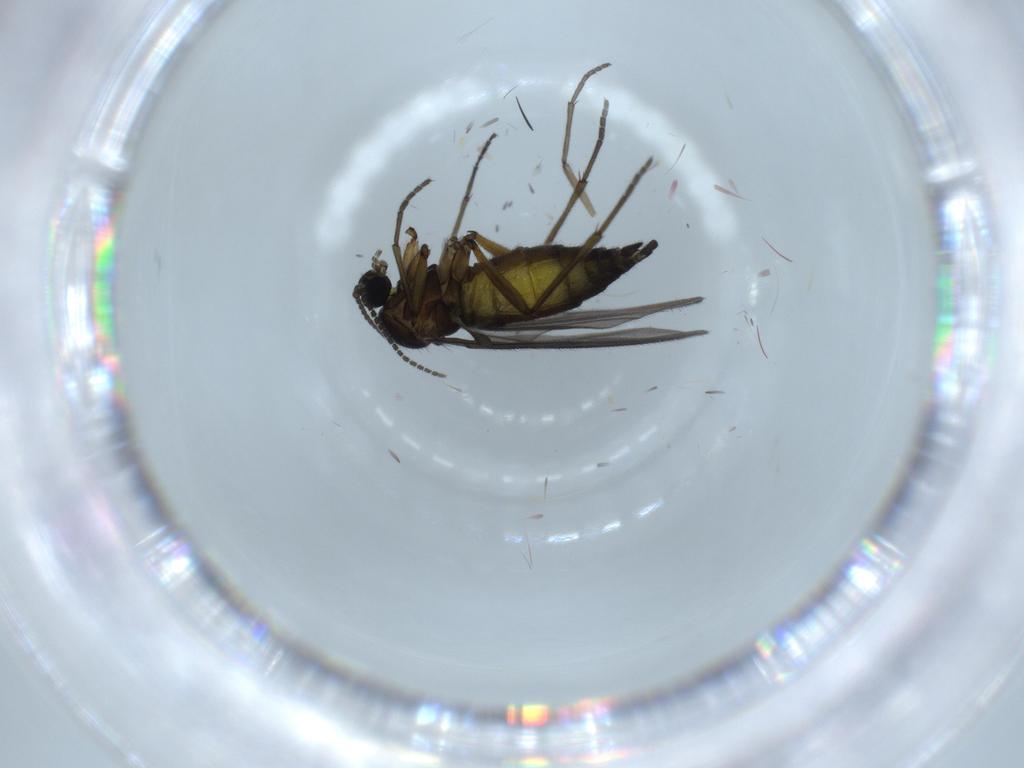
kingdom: Animalia
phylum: Arthropoda
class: Insecta
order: Diptera
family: Sciaridae
